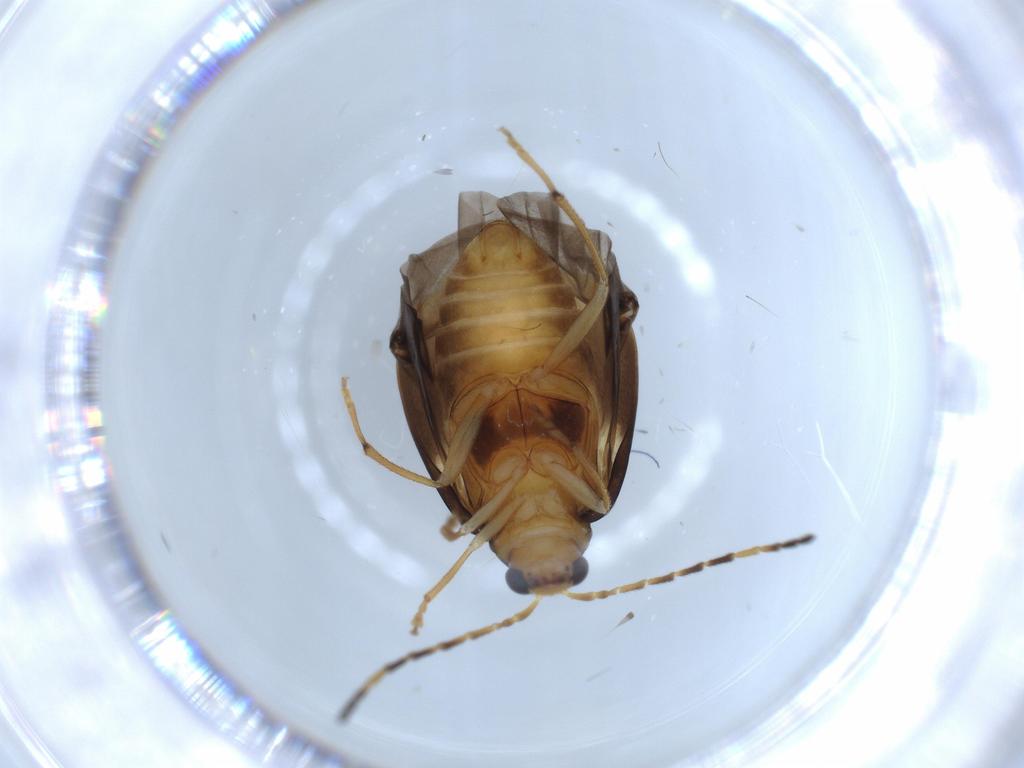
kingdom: Animalia
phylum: Arthropoda
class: Insecta
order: Coleoptera
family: Chrysomelidae
